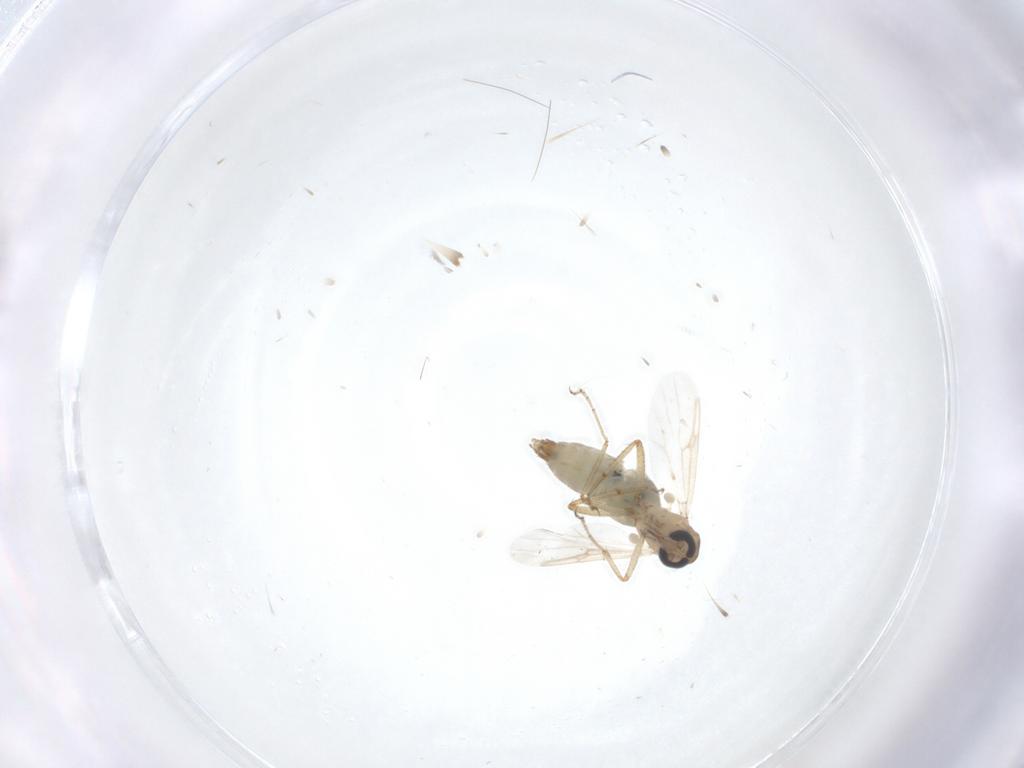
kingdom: Animalia
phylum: Arthropoda
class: Insecta
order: Diptera
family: Ceratopogonidae
